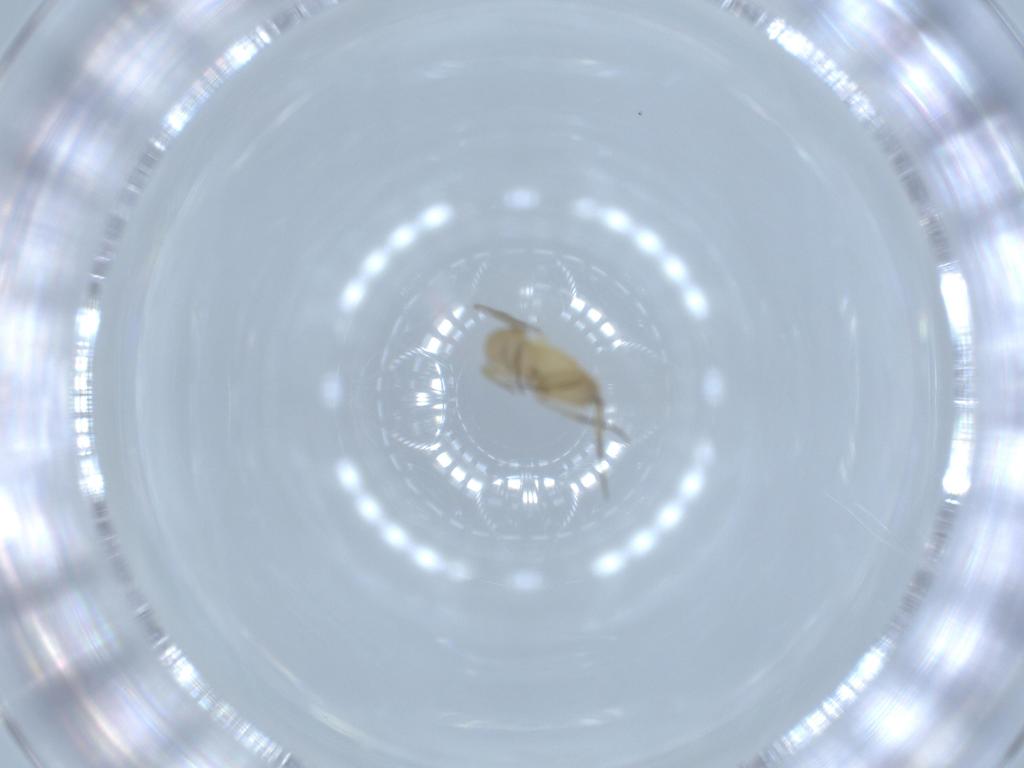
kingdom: Animalia
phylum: Arthropoda
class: Insecta
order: Diptera
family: Phoridae
